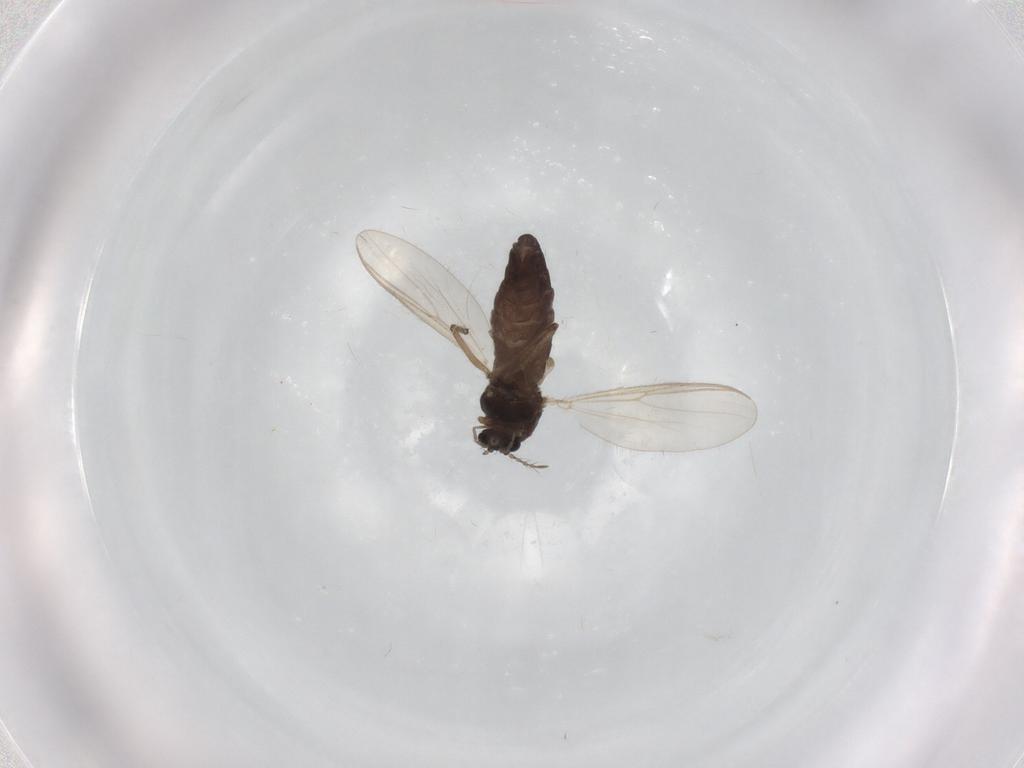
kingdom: Animalia
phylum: Arthropoda
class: Insecta
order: Diptera
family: Chironomidae
